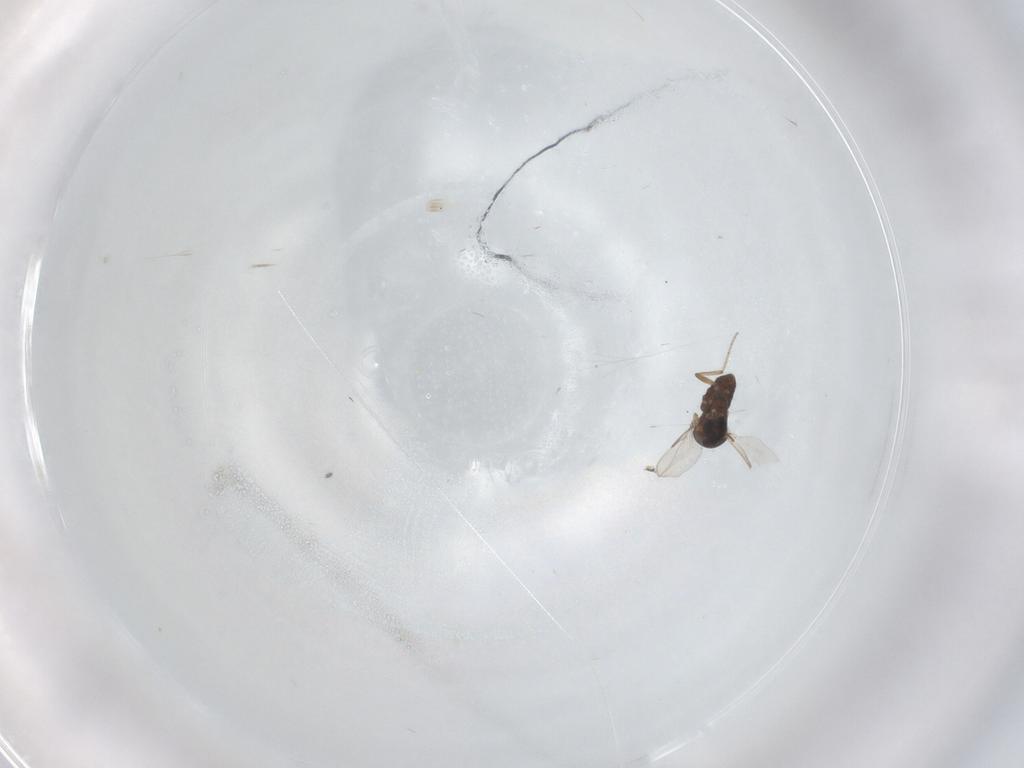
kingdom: Animalia
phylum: Arthropoda
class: Insecta
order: Diptera
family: Ceratopogonidae
